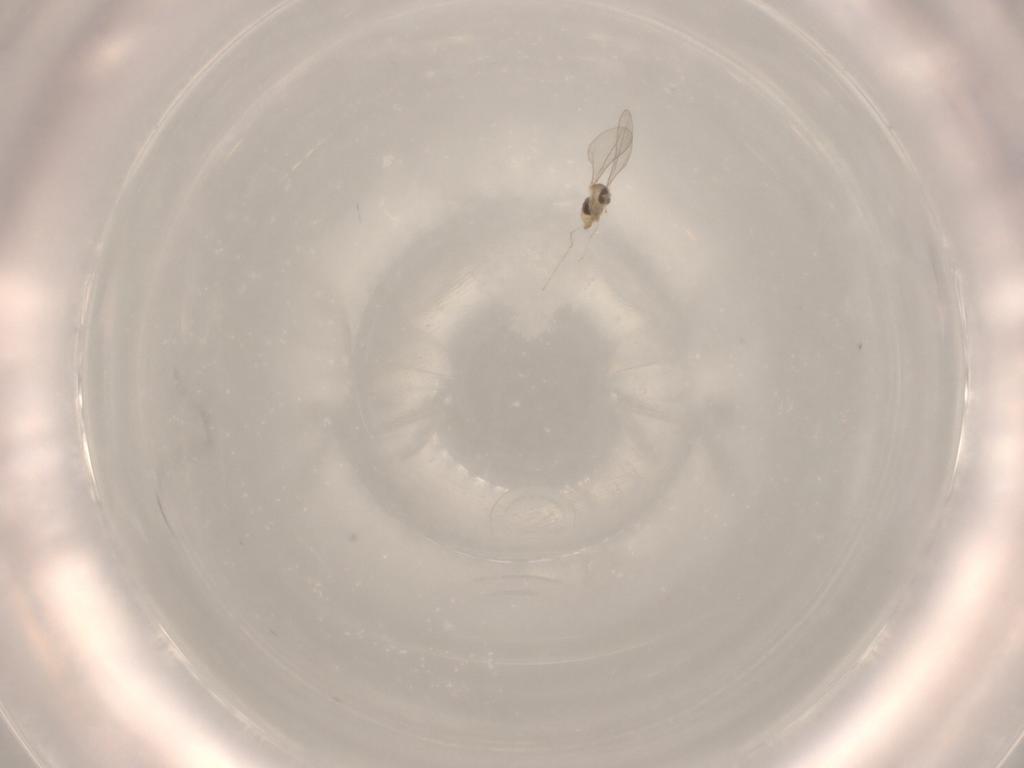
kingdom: Animalia
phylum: Arthropoda
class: Insecta
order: Diptera
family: Cecidomyiidae
